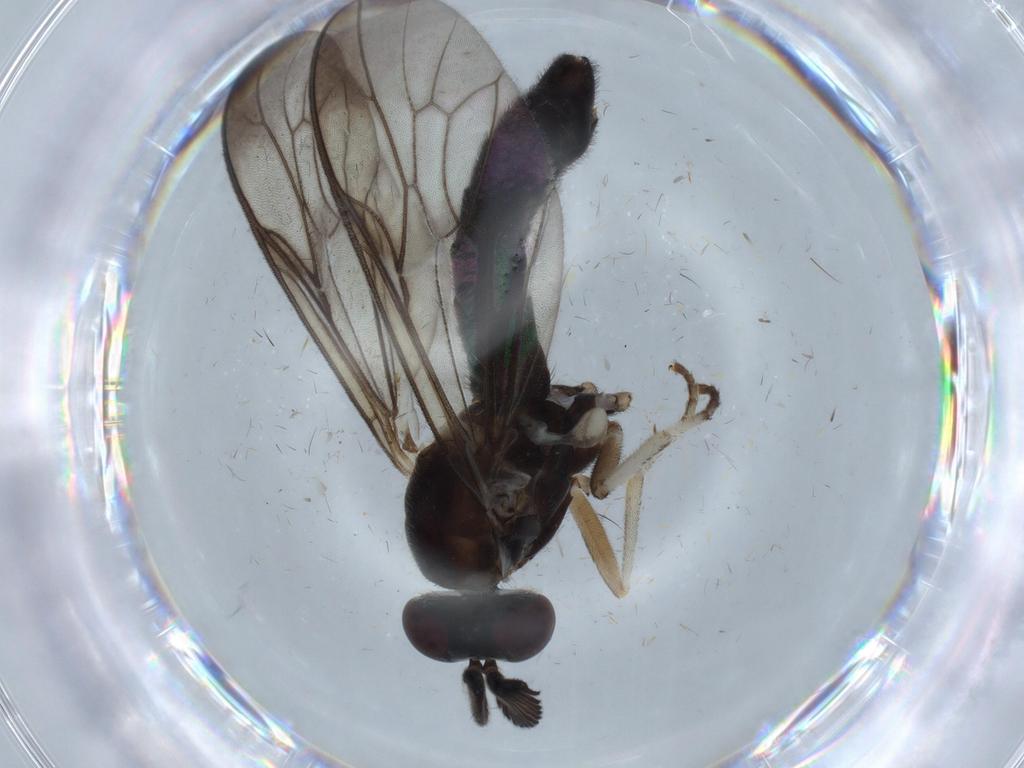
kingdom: Animalia
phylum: Arthropoda
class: Insecta
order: Diptera
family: Xylophagidae
